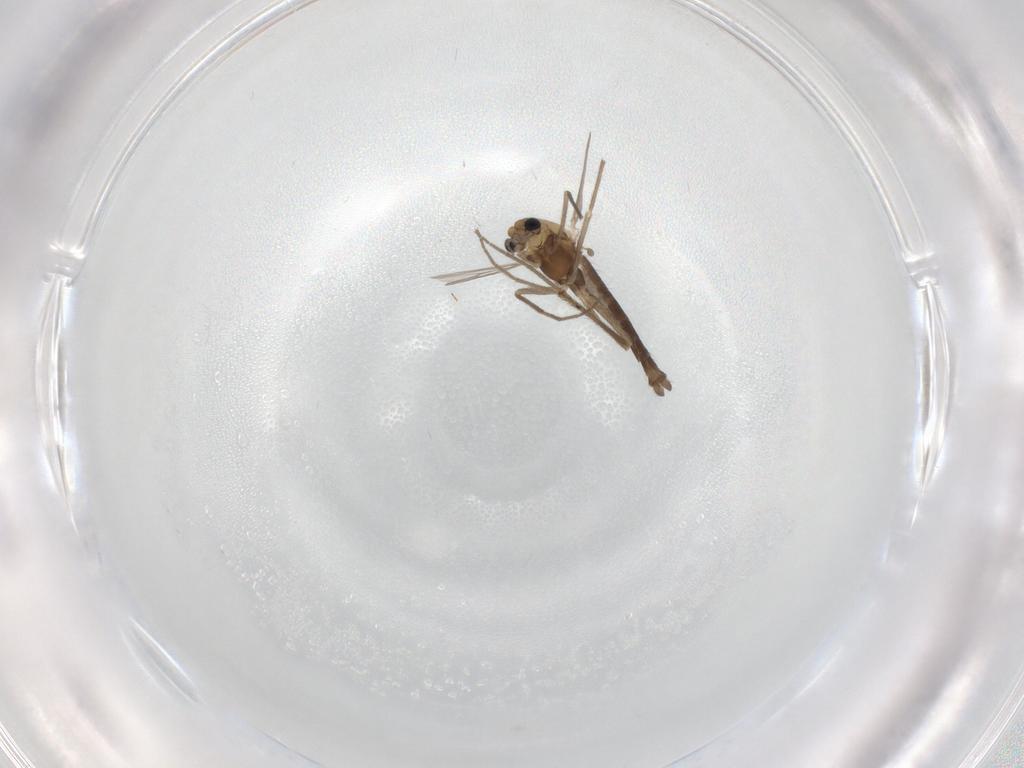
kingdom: Animalia
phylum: Arthropoda
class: Insecta
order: Diptera
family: Chironomidae
